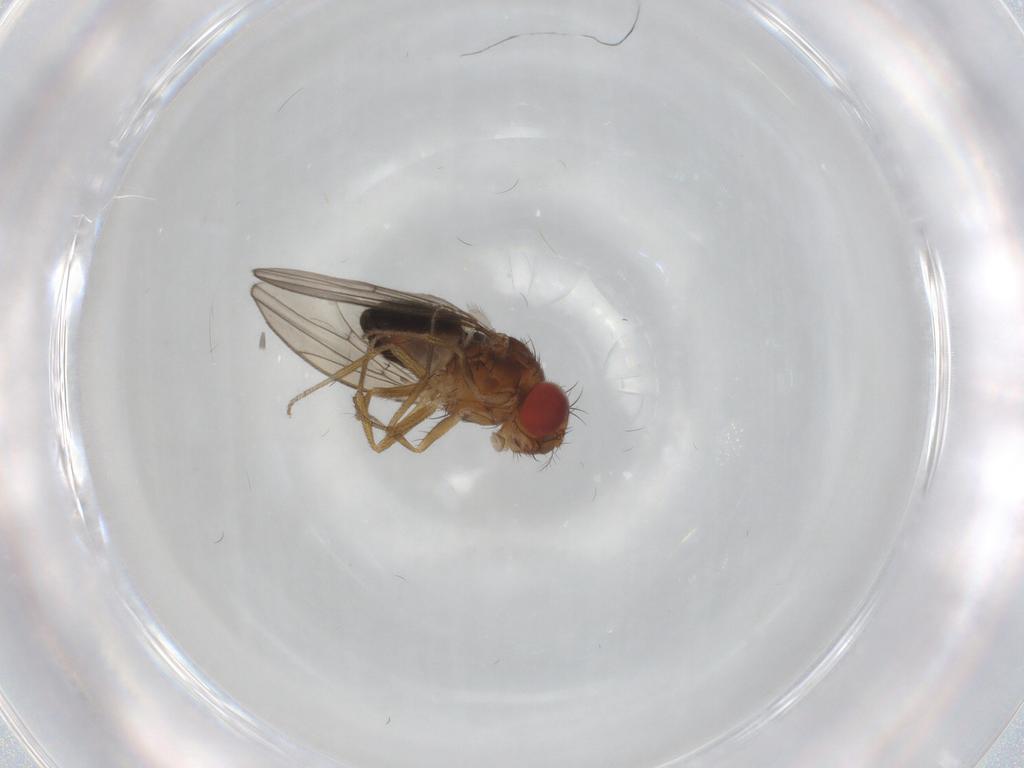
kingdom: Animalia
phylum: Arthropoda
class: Insecta
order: Diptera
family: Drosophilidae
